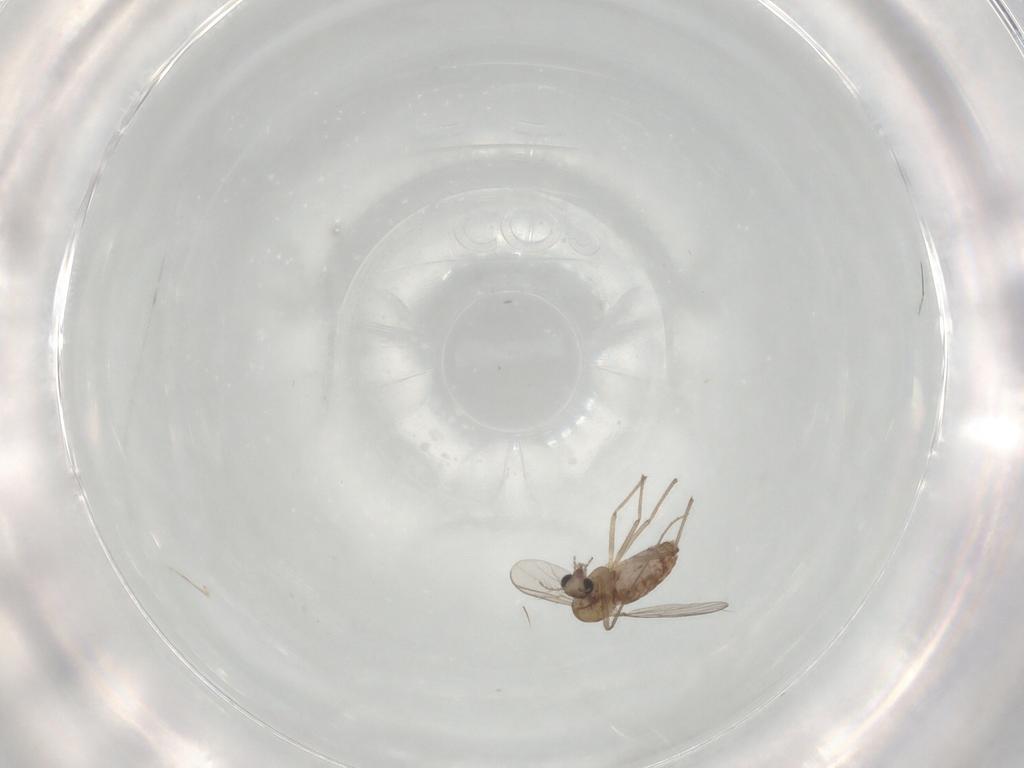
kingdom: Animalia
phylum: Arthropoda
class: Insecta
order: Diptera
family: Chironomidae
